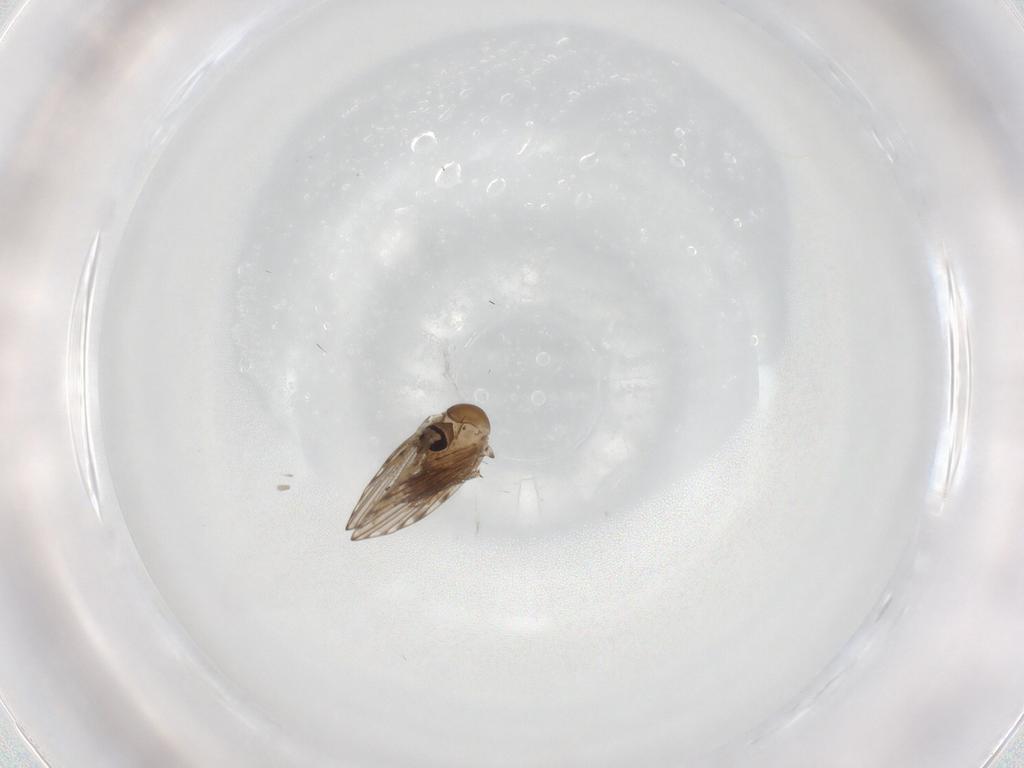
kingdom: Animalia
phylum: Arthropoda
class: Insecta
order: Diptera
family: Psychodidae
